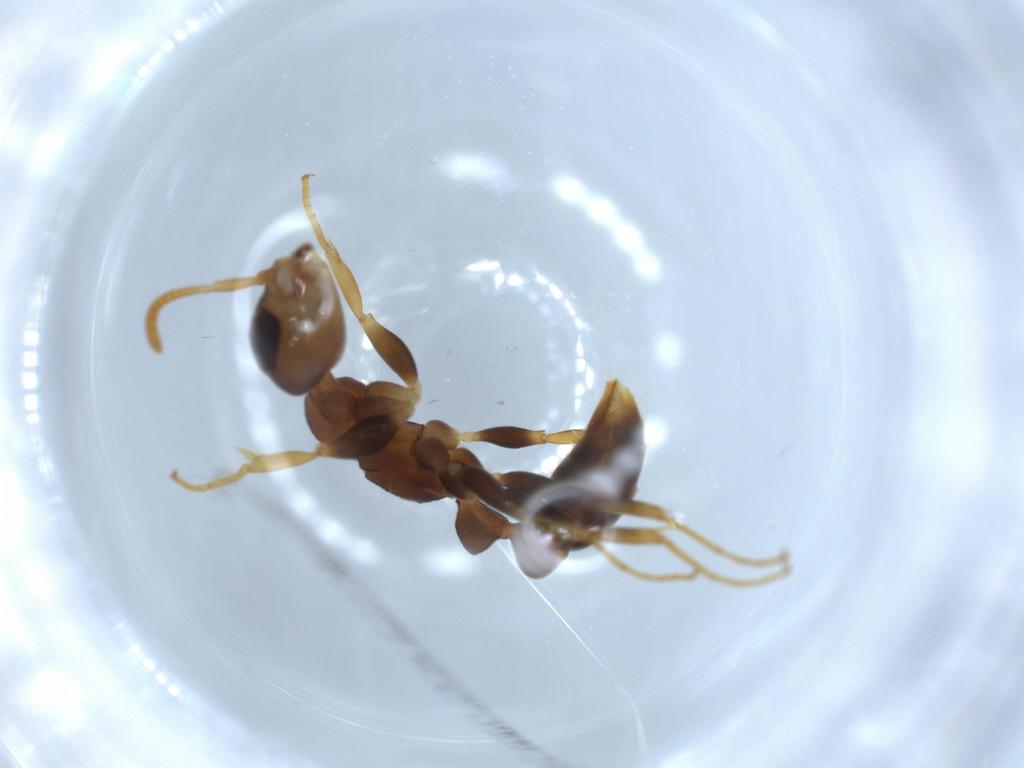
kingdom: Animalia
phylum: Arthropoda
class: Insecta
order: Hymenoptera
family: Formicidae
